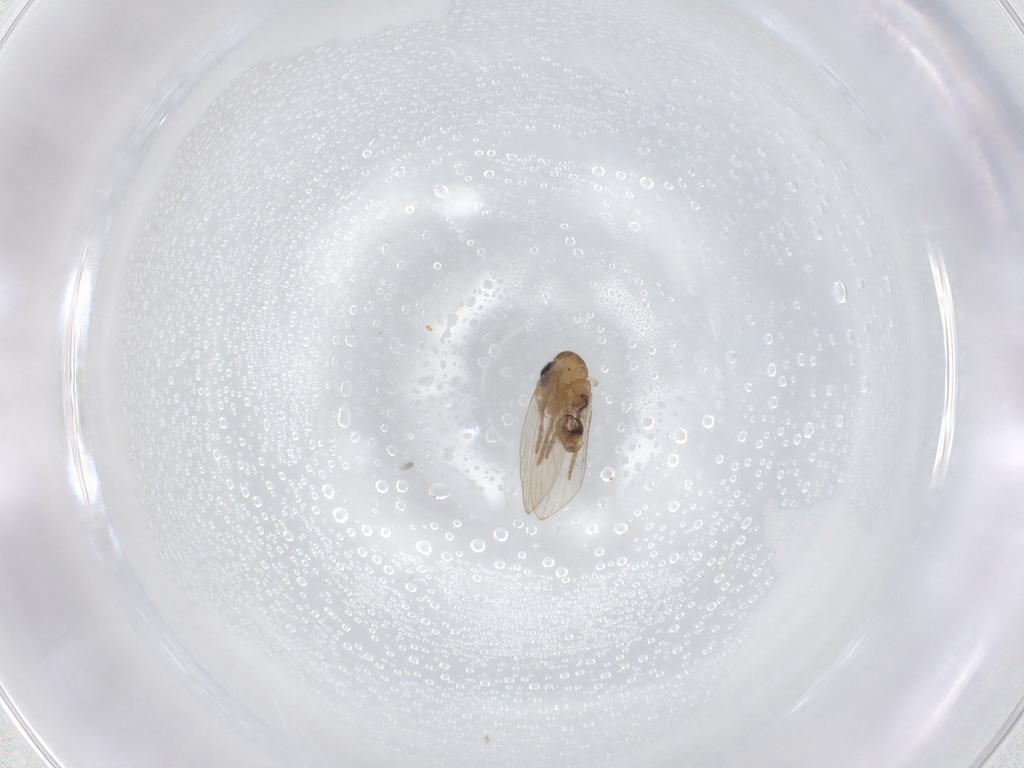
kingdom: Animalia
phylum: Arthropoda
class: Insecta
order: Diptera
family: Psychodidae
